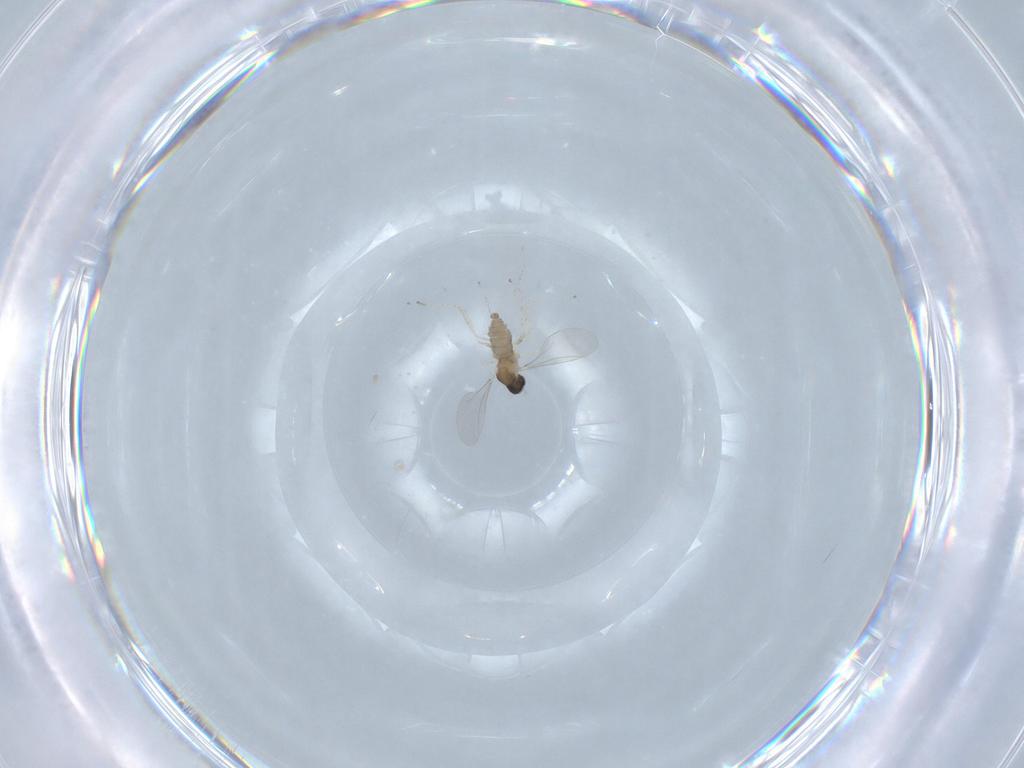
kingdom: Animalia
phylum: Arthropoda
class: Insecta
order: Diptera
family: Cecidomyiidae
